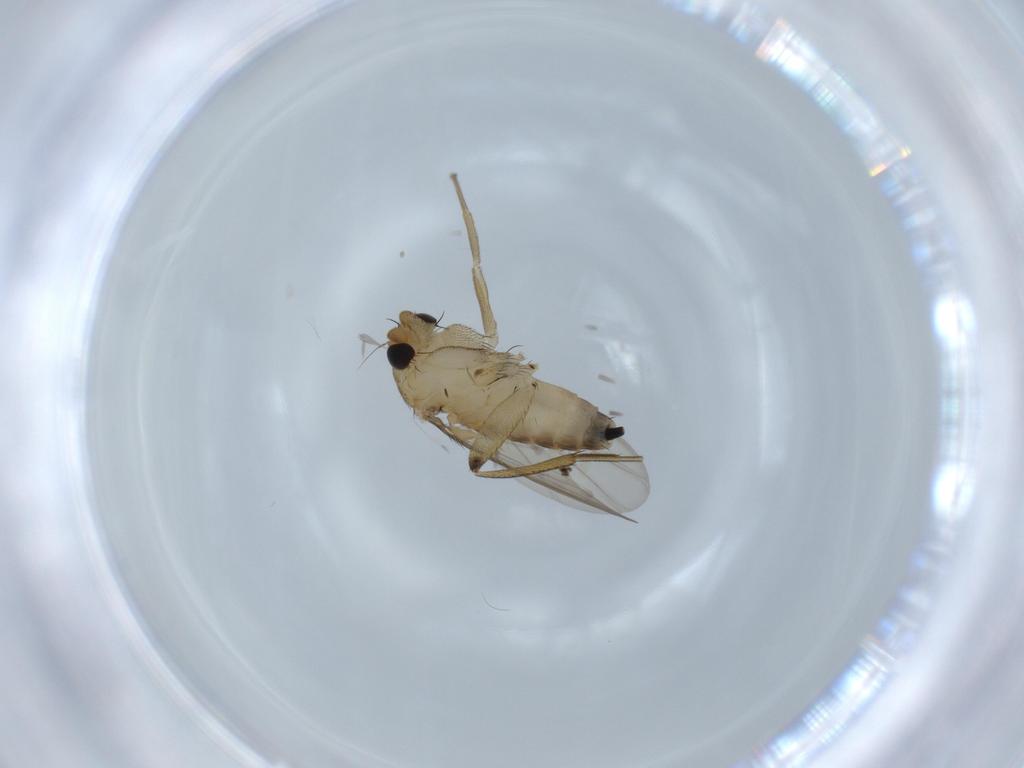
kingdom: Animalia
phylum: Arthropoda
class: Insecta
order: Diptera
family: Phoridae
